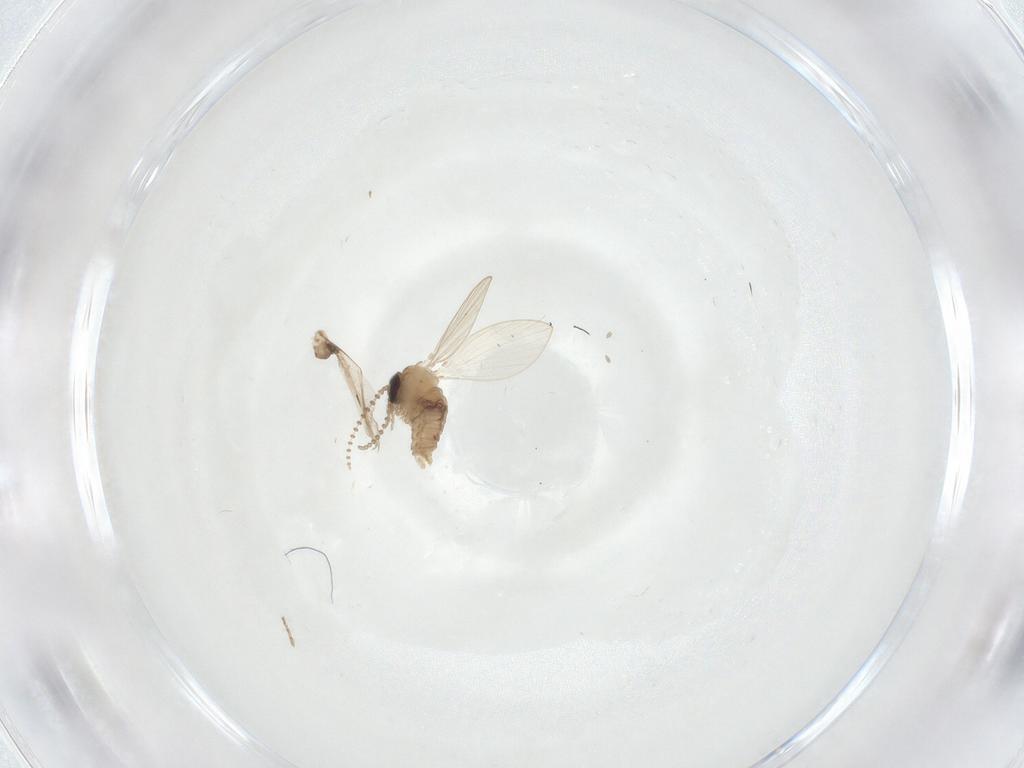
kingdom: Animalia
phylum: Arthropoda
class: Insecta
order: Diptera
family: Psychodidae
